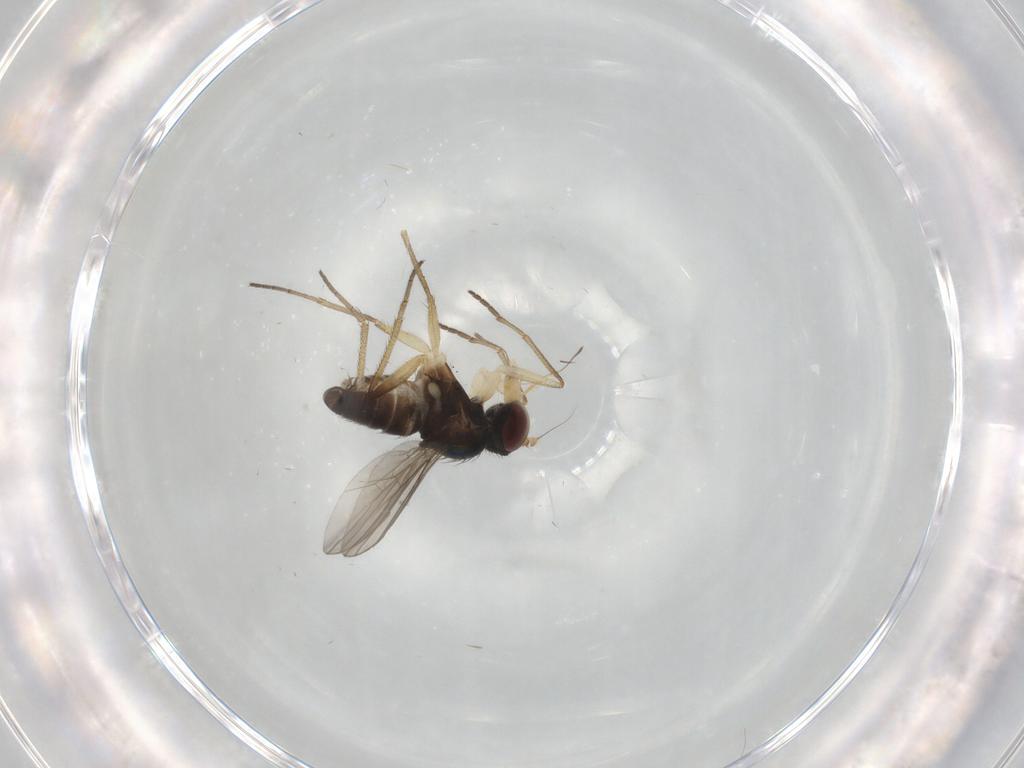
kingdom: Animalia
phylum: Arthropoda
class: Insecta
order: Diptera
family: Dolichopodidae
